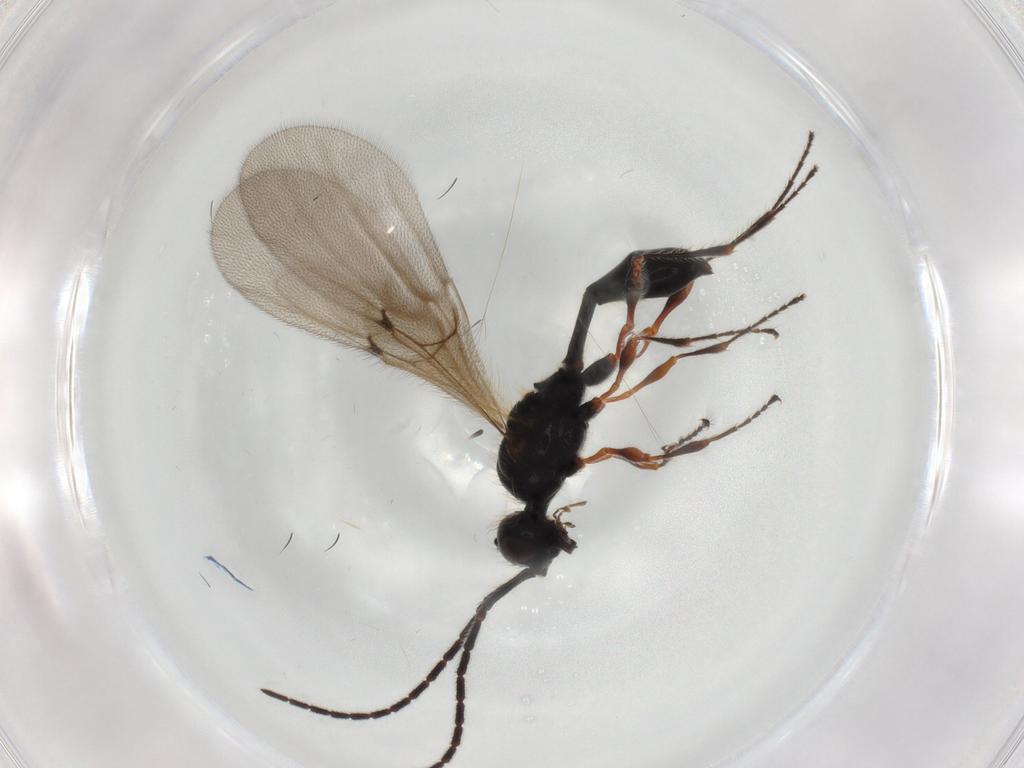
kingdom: Animalia
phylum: Arthropoda
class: Insecta
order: Hymenoptera
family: Diapriidae
